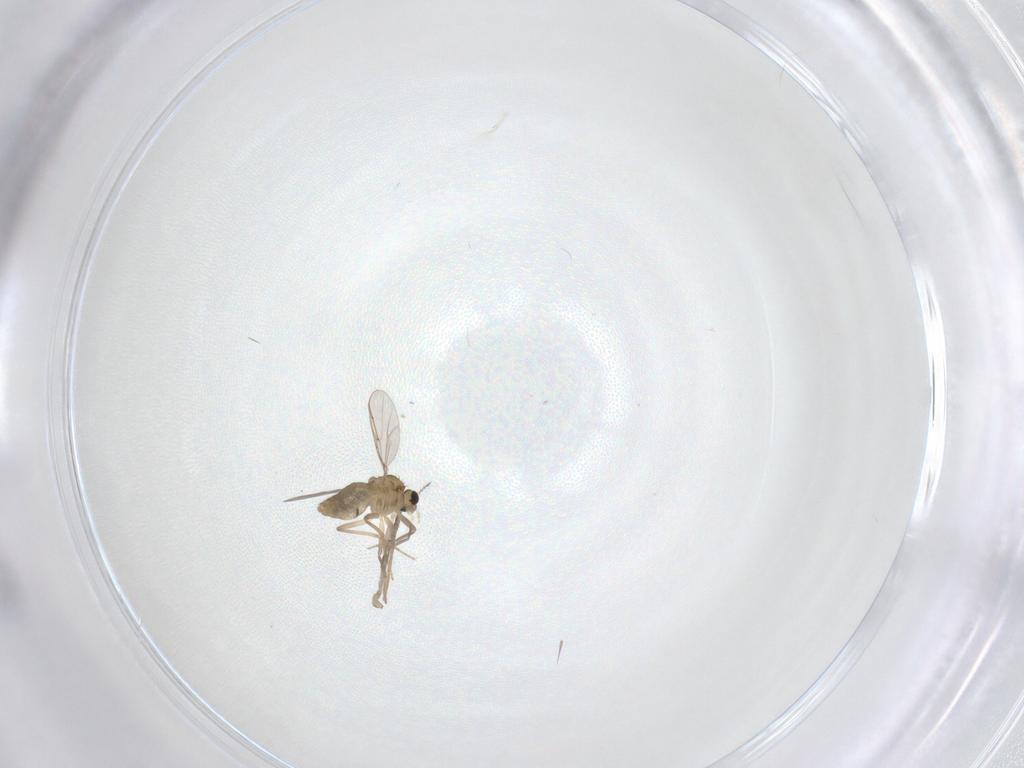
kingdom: Animalia
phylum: Arthropoda
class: Insecta
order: Diptera
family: Chironomidae
